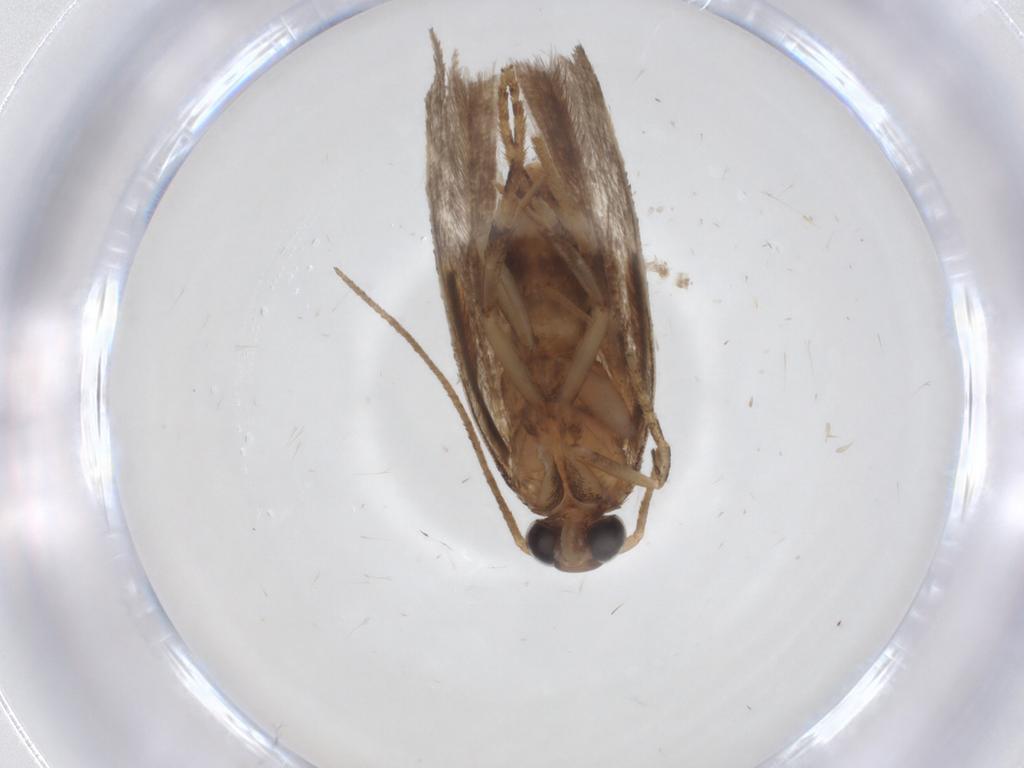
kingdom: Animalia
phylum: Arthropoda
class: Insecta
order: Lepidoptera
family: Gelechiidae
